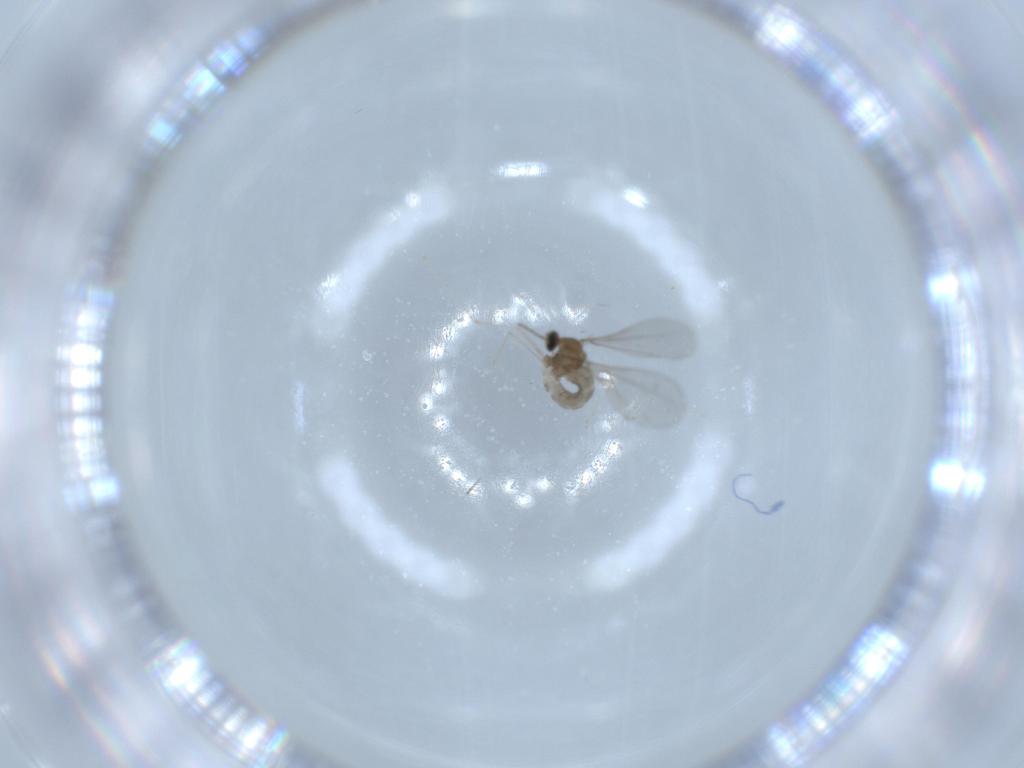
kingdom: Animalia
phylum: Arthropoda
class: Insecta
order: Diptera
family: Cecidomyiidae
